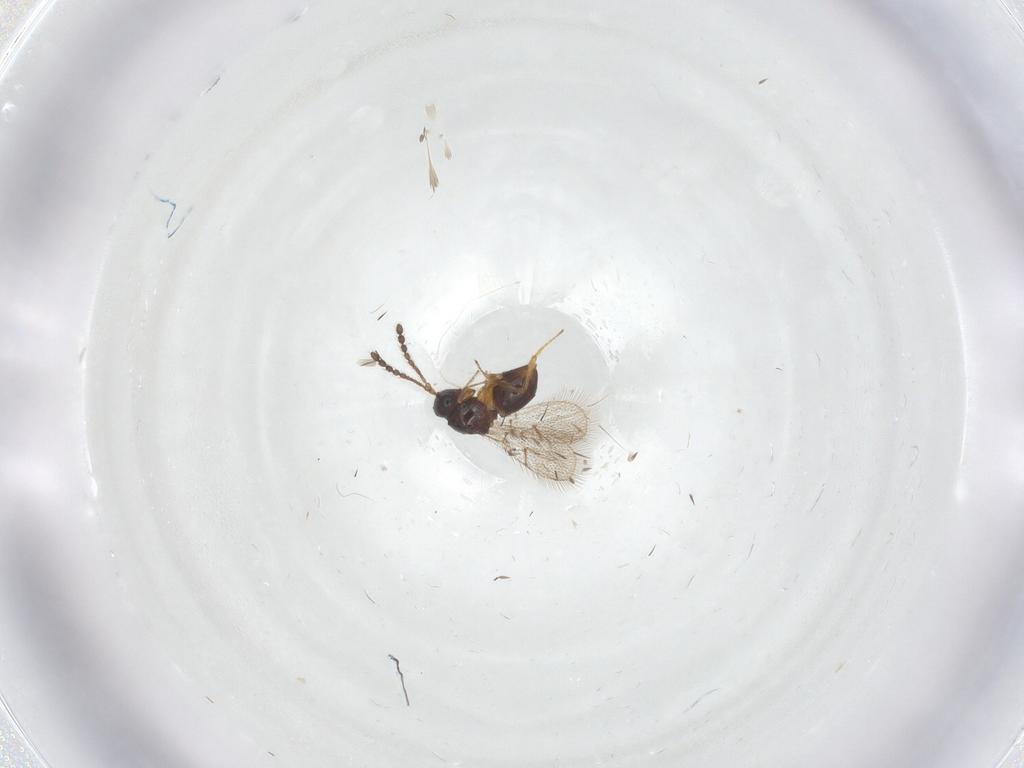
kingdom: Animalia
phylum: Arthropoda
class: Insecta
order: Hymenoptera
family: Figitidae
